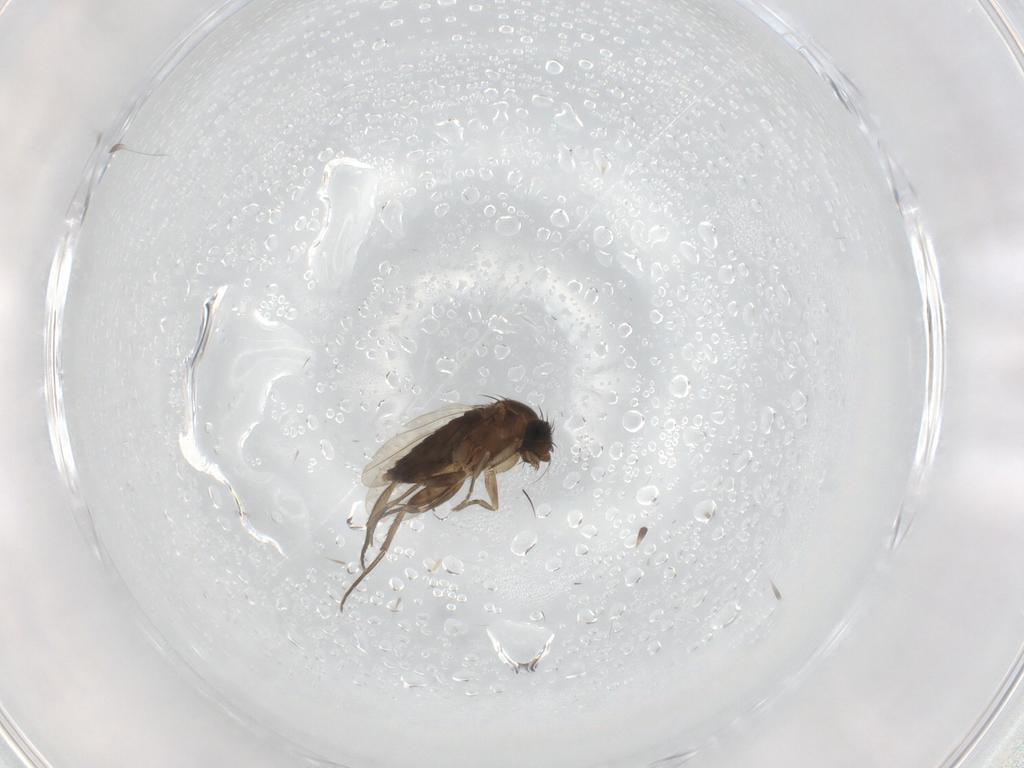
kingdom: Animalia
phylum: Arthropoda
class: Insecta
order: Diptera
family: Phoridae
